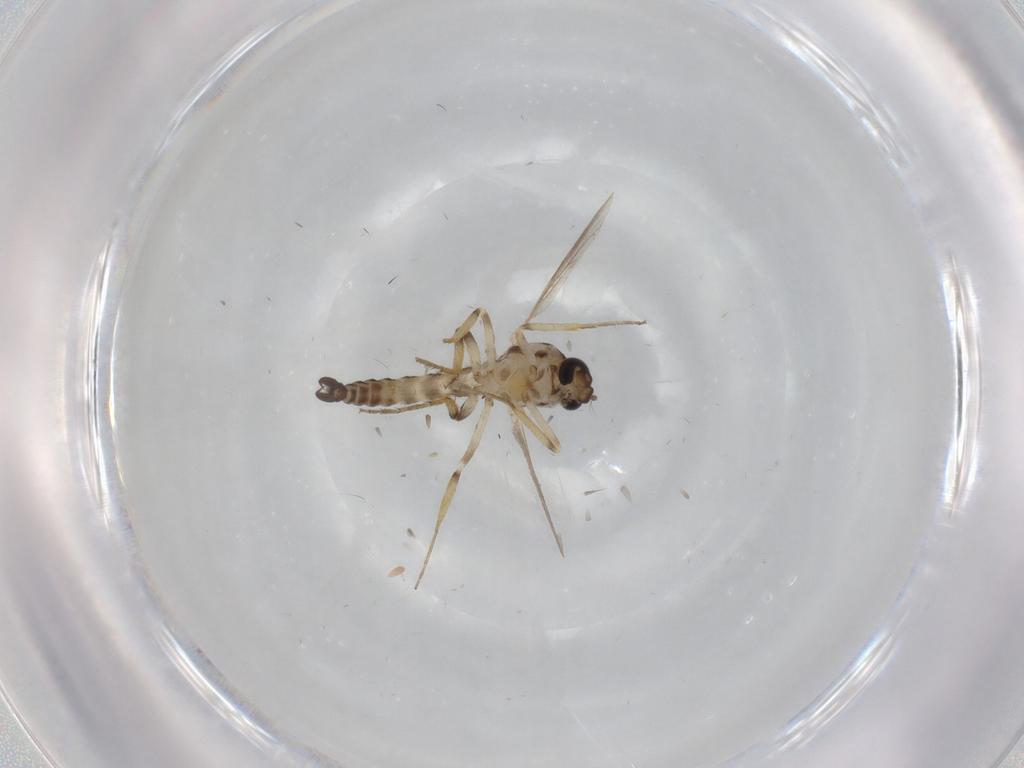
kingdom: Animalia
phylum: Arthropoda
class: Insecta
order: Diptera
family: Ceratopogonidae
